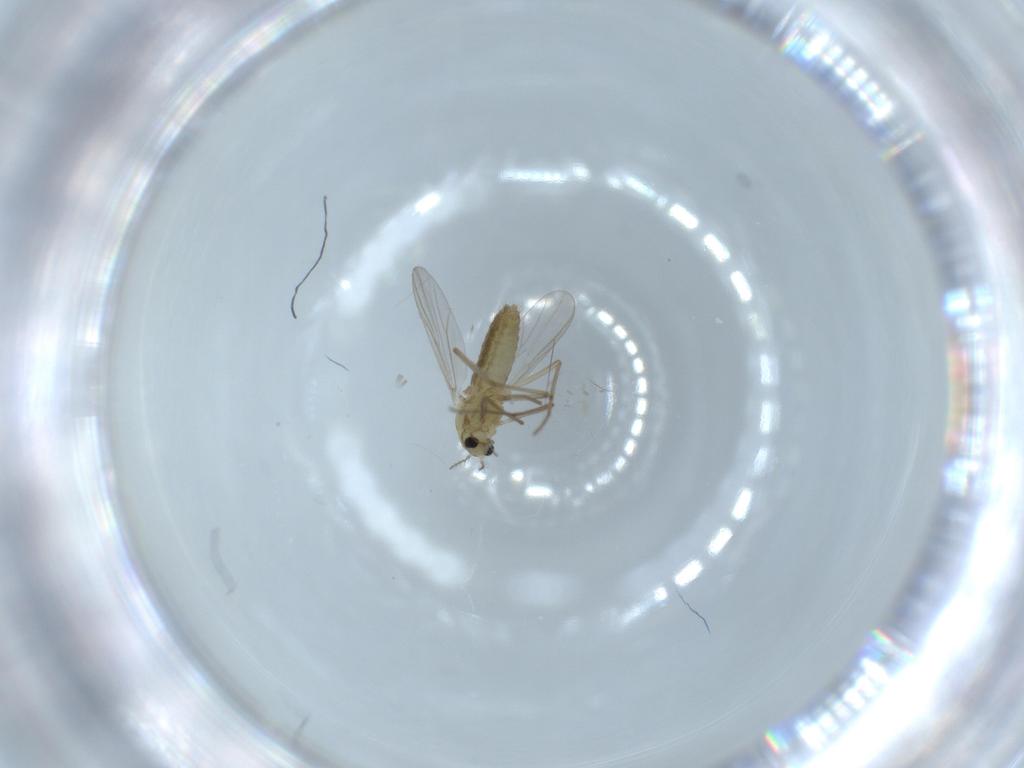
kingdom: Animalia
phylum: Arthropoda
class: Insecta
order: Diptera
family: Chironomidae
